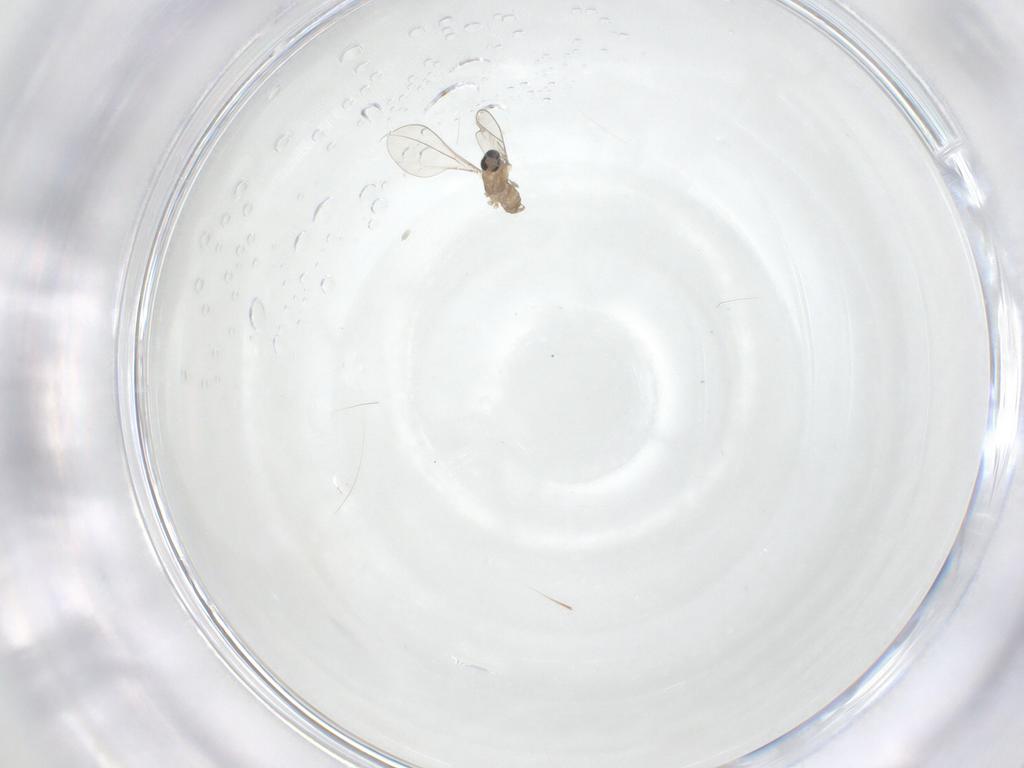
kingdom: Animalia
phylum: Arthropoda
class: Insecta
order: Diptera
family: Cecidomyiidae
